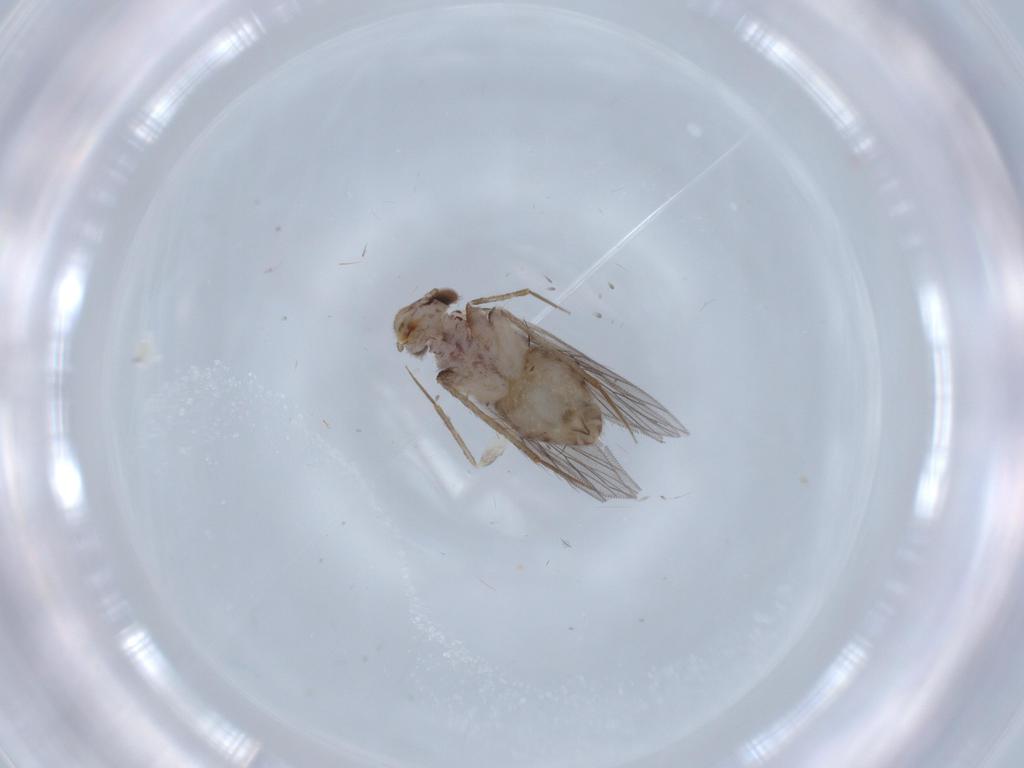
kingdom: Animalia
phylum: Arthropoda
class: Insecta
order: Psocodea
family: Lepidopsocidae
